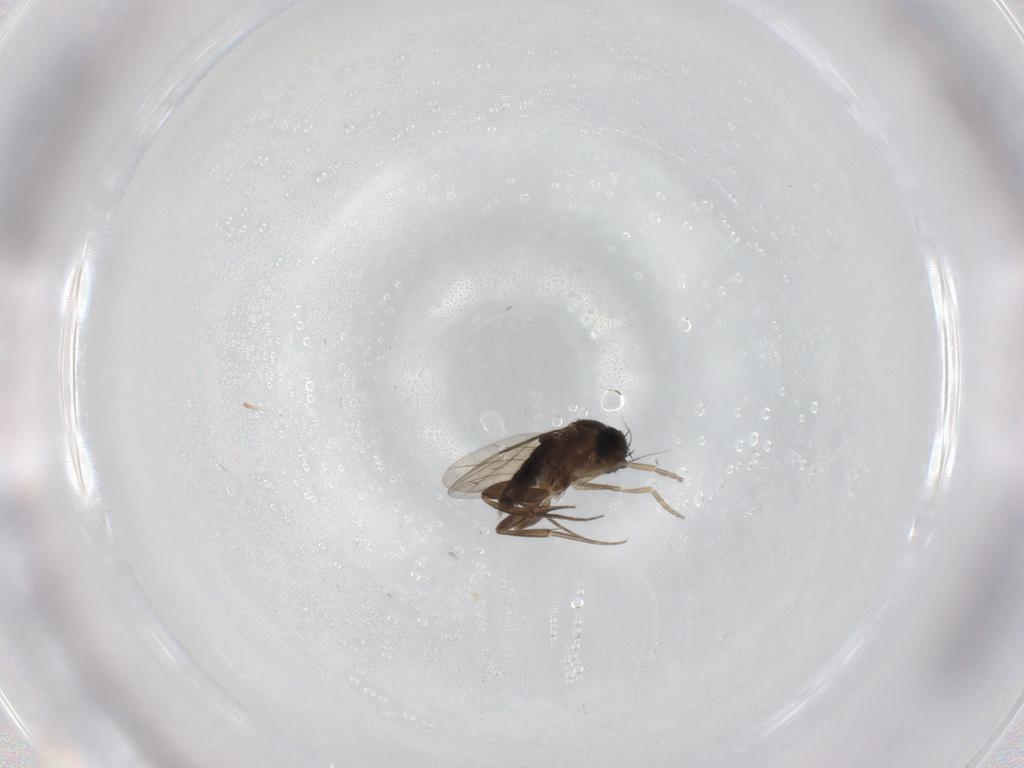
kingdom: Animalia
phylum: Arthropoda
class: Insecta
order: Diptera
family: Phoridae
